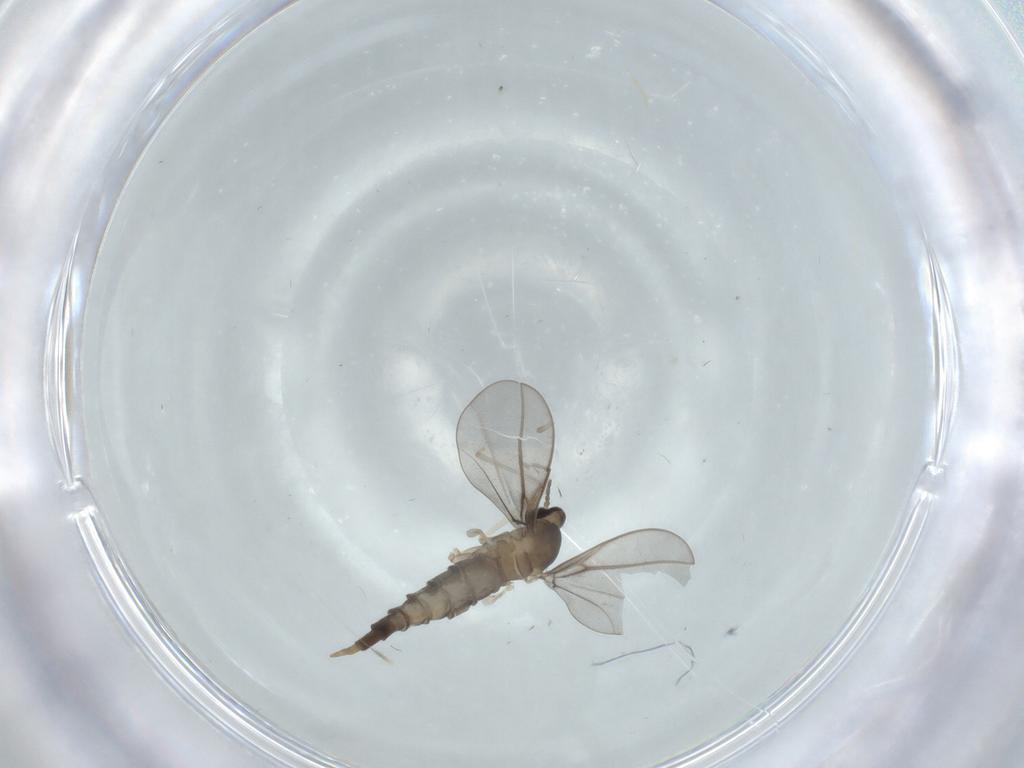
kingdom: Animalia
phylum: Arthropoda
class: Insecta
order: Diptera
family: Cecidomyiidae
